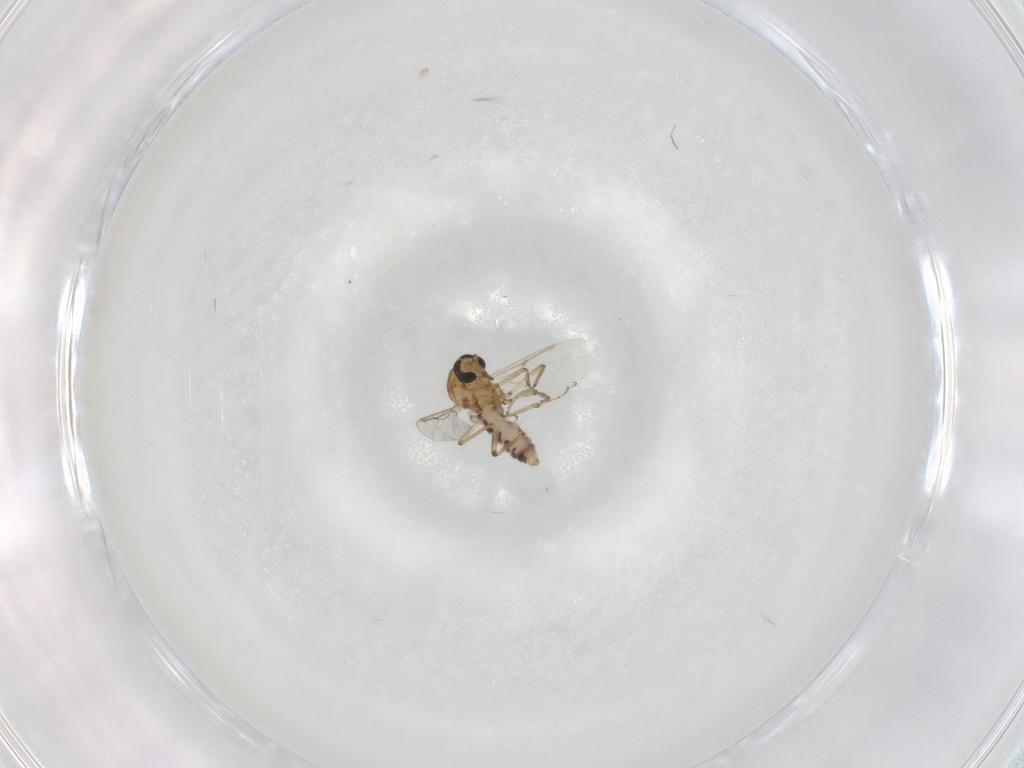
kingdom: Animalia
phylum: Arthropoda
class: Insecta
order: Diptera
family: Ceratopogonidae
